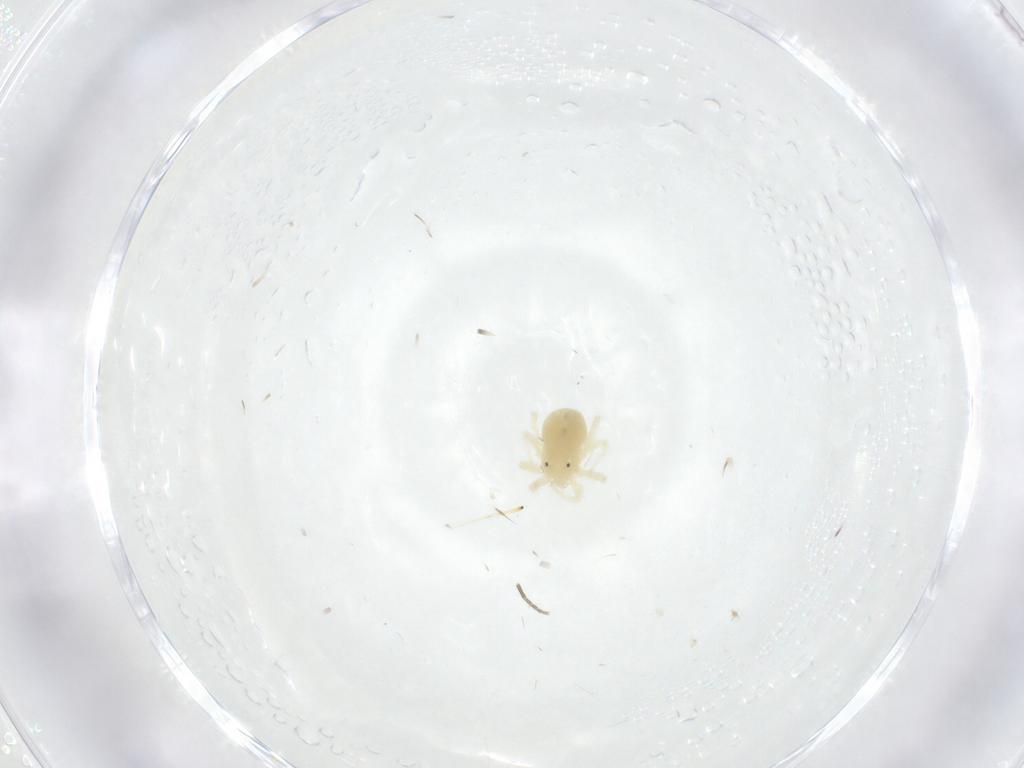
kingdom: Animalia
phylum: Arthropoda
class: Arachnida
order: Trombidiformes
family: Anystidae
